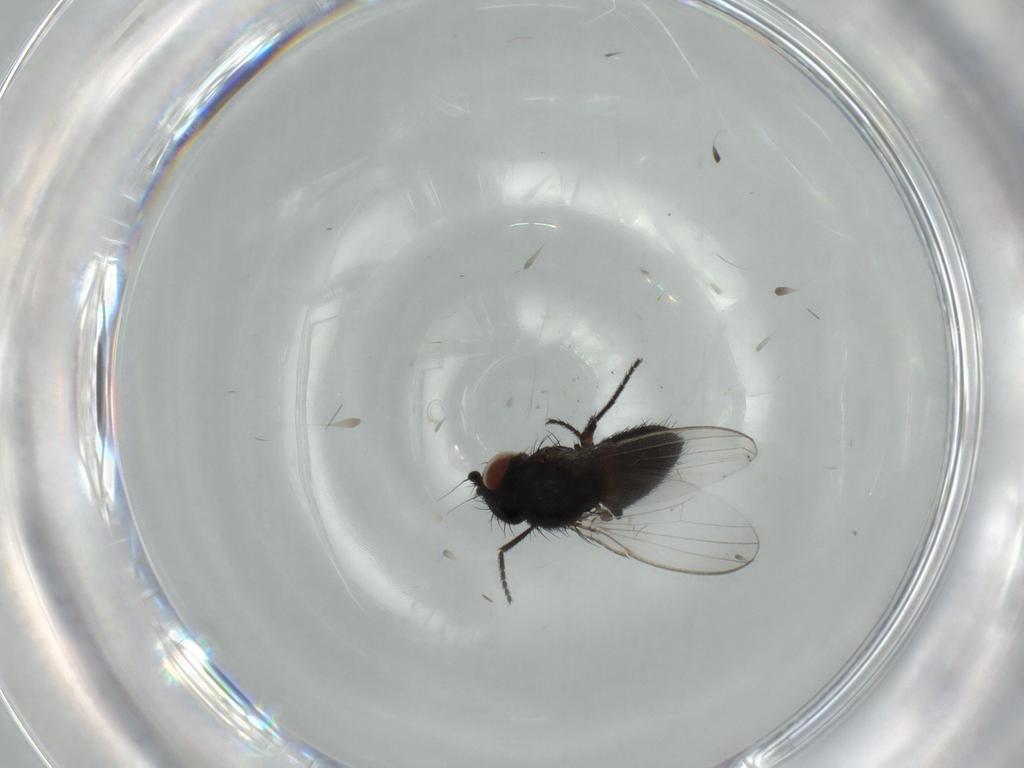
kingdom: Animalia
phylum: Arthropoda
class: Insecta
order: Diptera
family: Milichiidae
